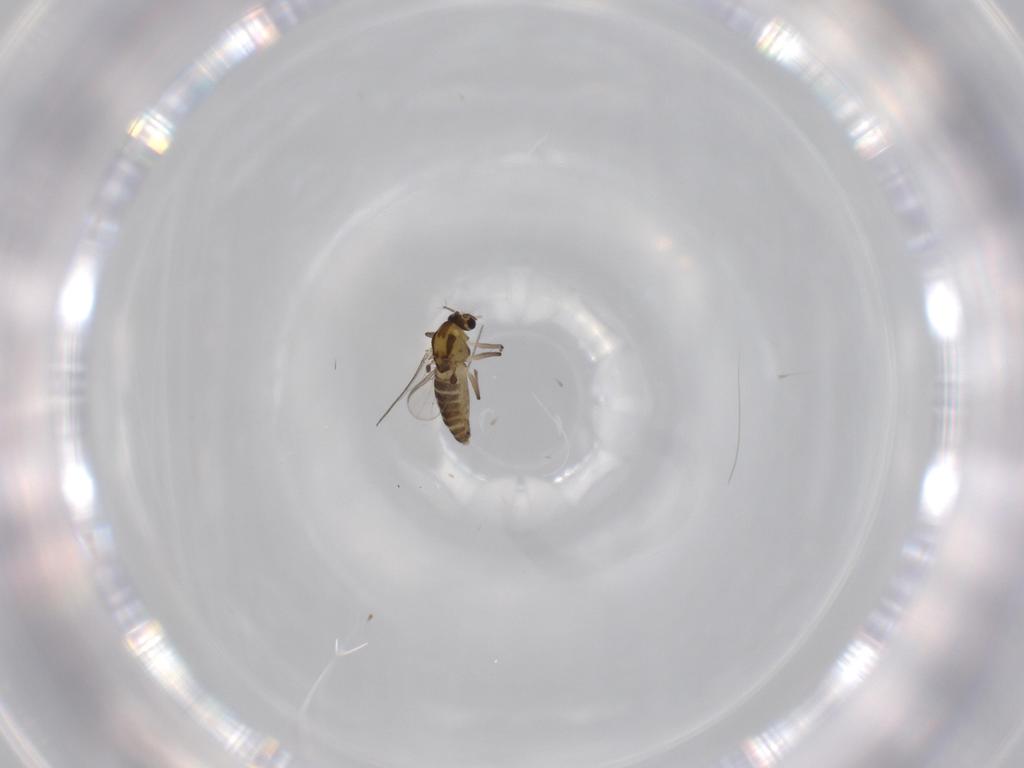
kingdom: Animalia
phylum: Arthropoda
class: Insecta
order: Diptera
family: Chironomidae
